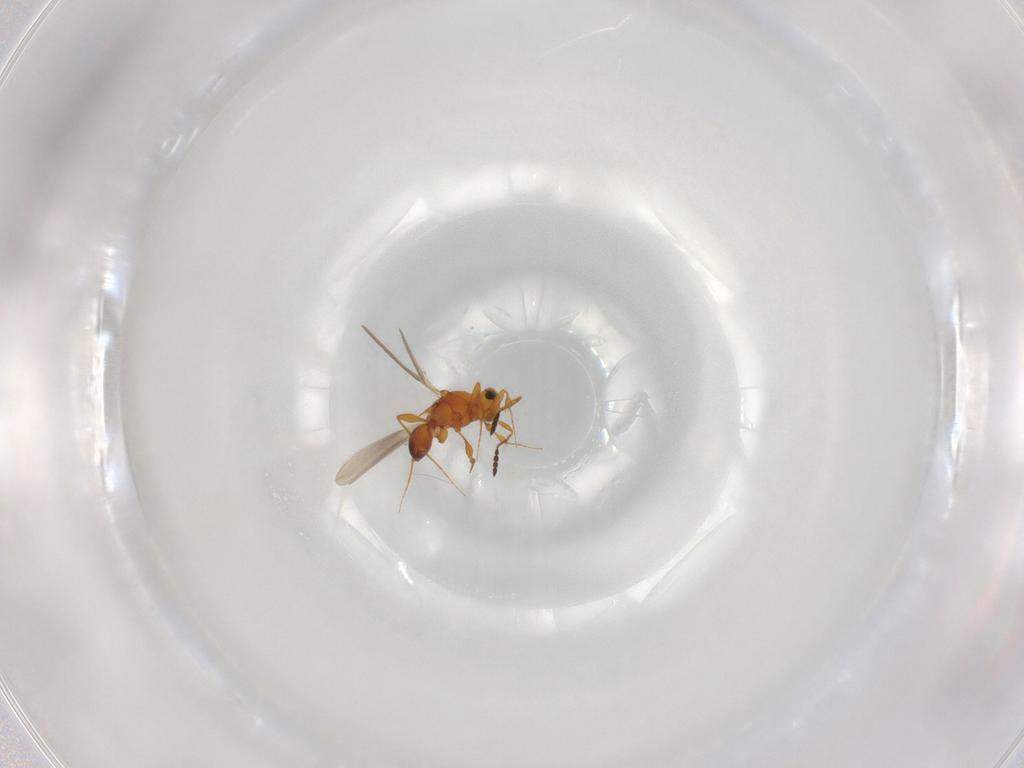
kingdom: Animalia
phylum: Arthropoda
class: Insecta
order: Hymenoptera
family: Platygastridae
